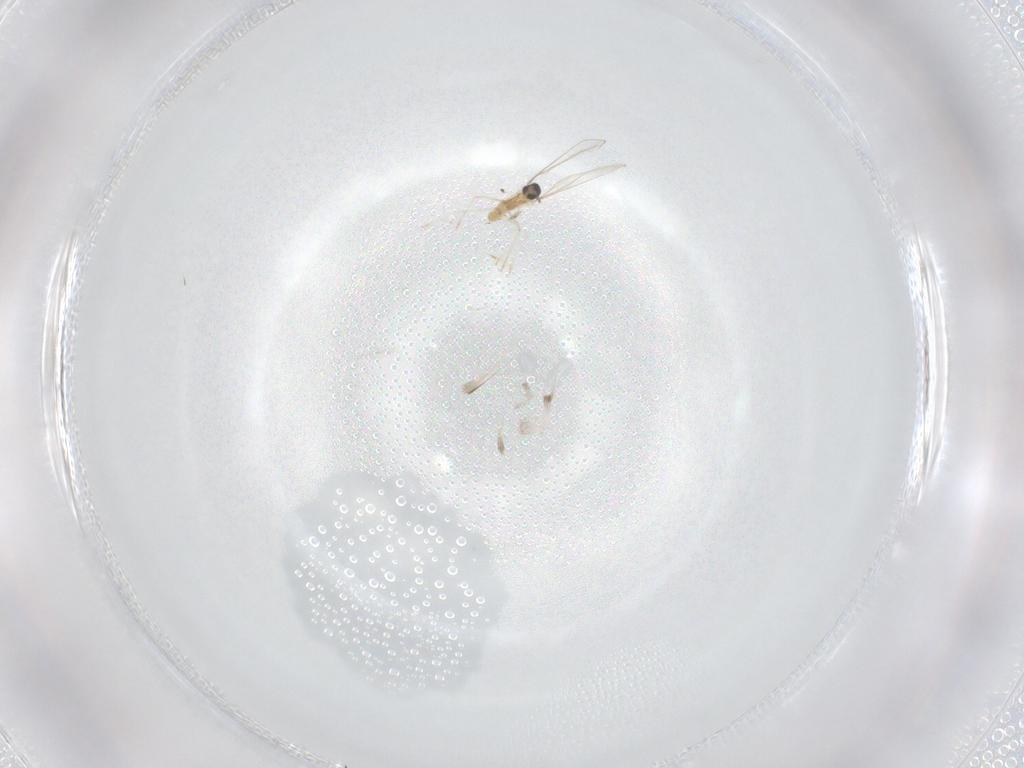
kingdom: Animalia
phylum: Arthropoda
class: Insecta
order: Diptera
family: Cecidomyiidae
